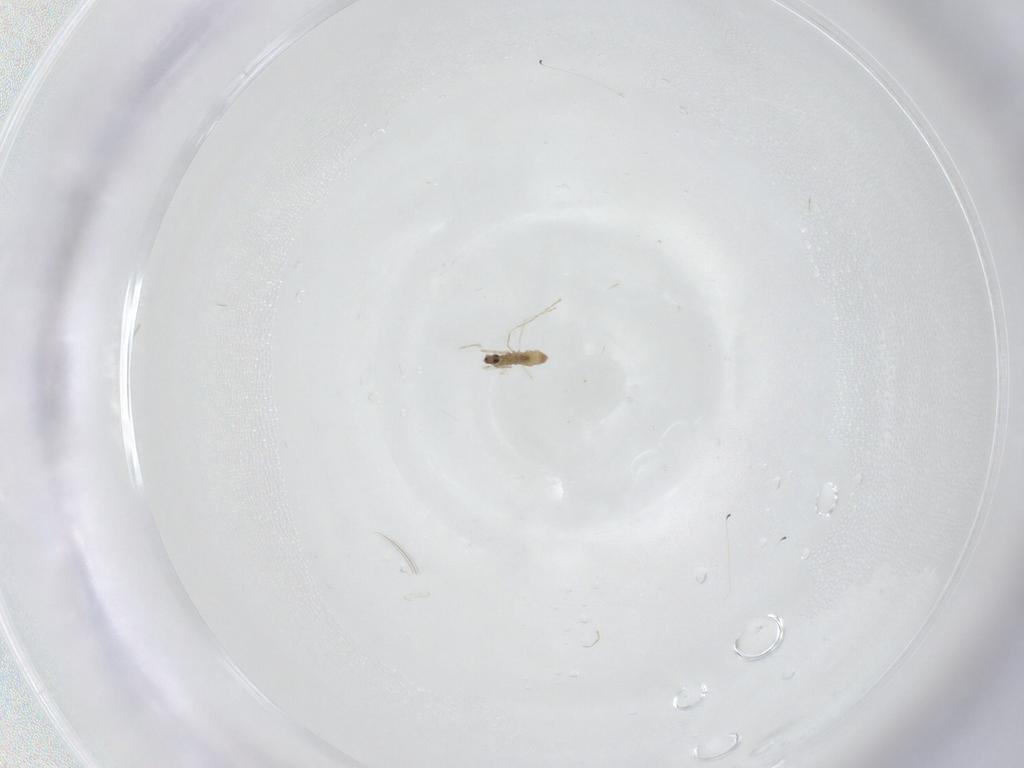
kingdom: Animalia
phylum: Arthropoda
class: Insecta
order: Diptera
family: Cecidomyiidae
